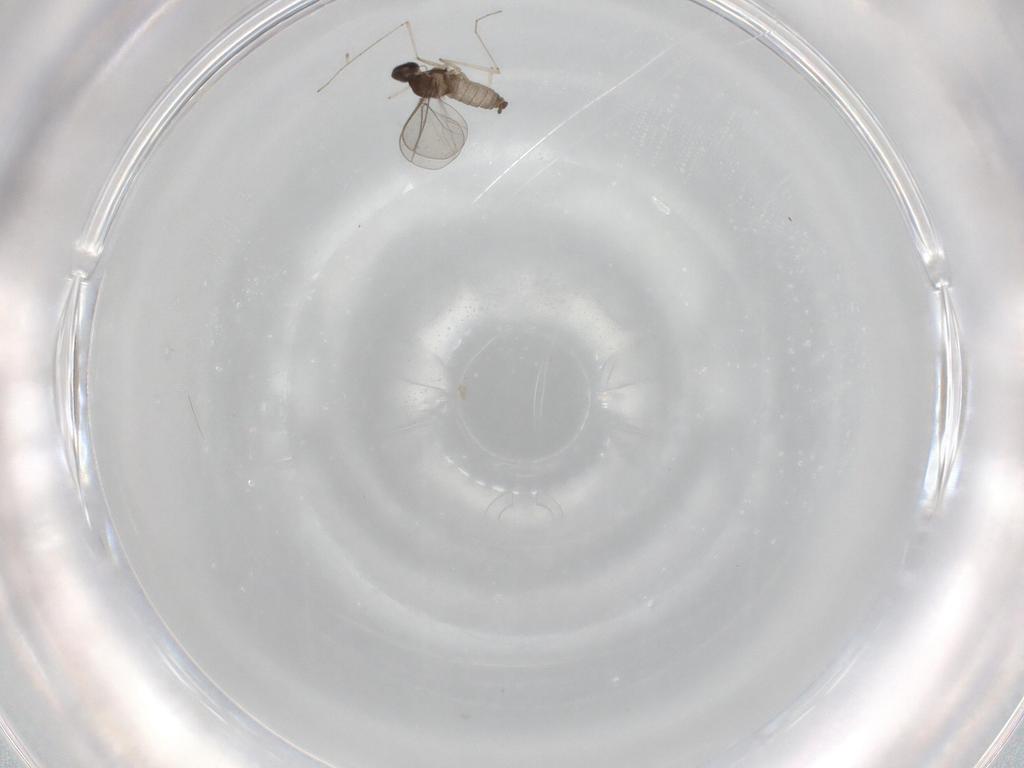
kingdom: Animalia
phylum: Arthropoda
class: Insecta
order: Diptera
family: Cecidomyiidae
